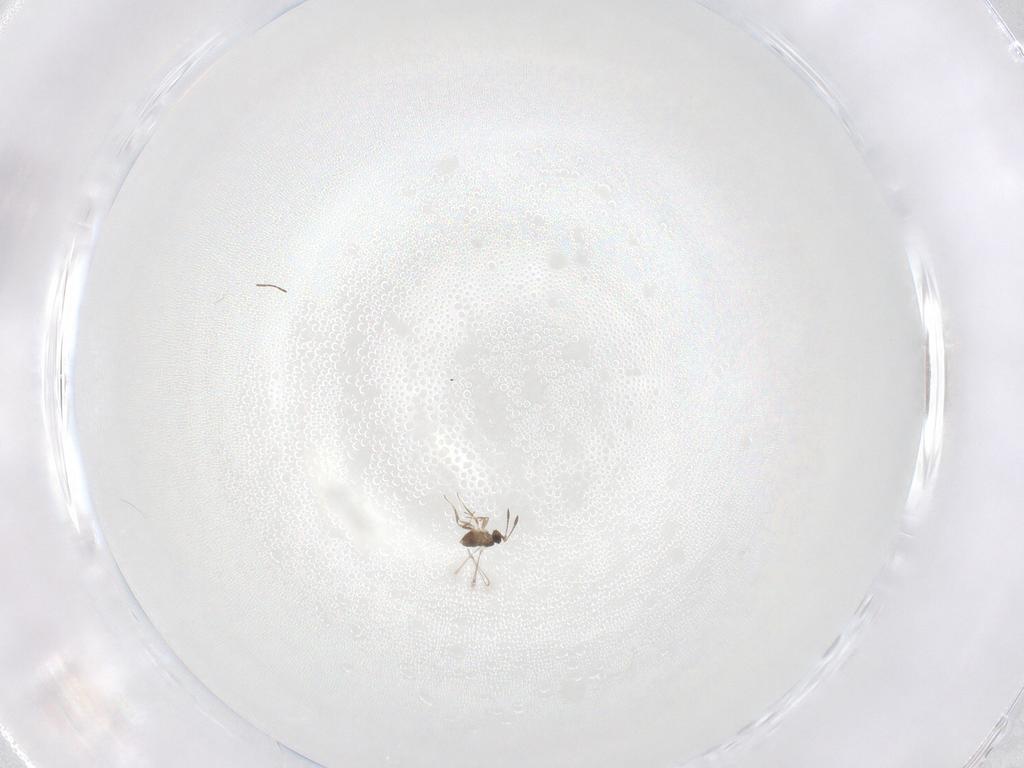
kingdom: Animalia
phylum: Arthropoda
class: Insecta
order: Hymenoptera
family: Mymaridae
